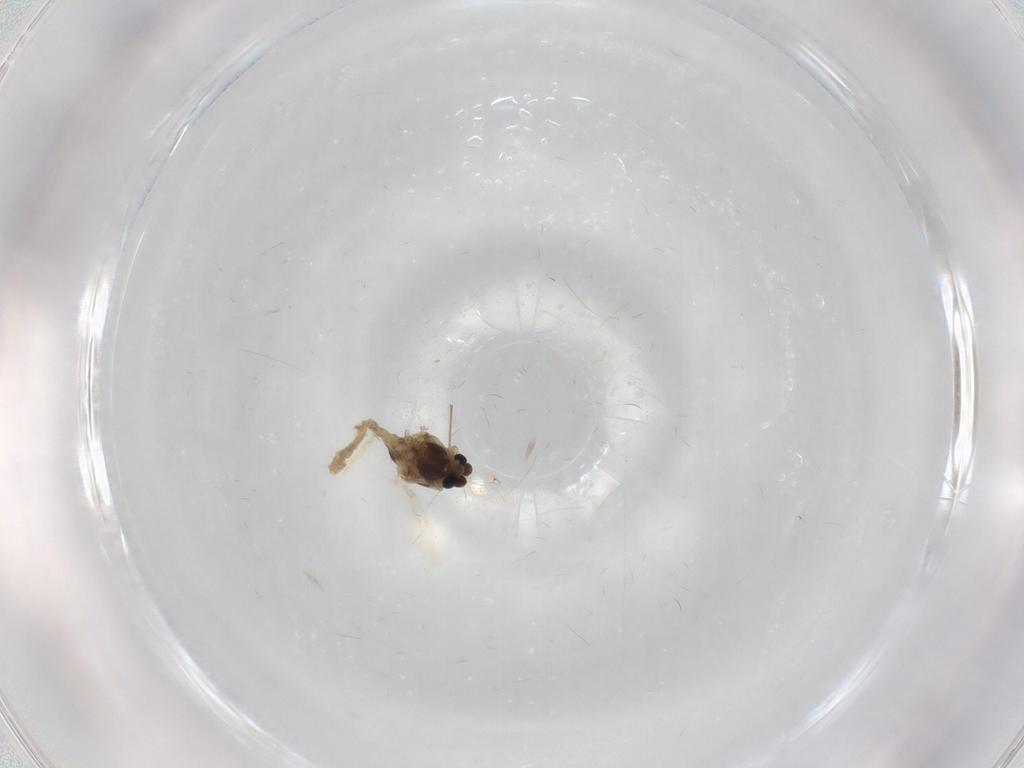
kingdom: Animalia
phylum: Arthropoda
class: Insecta
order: Diptera
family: Chironomidae
